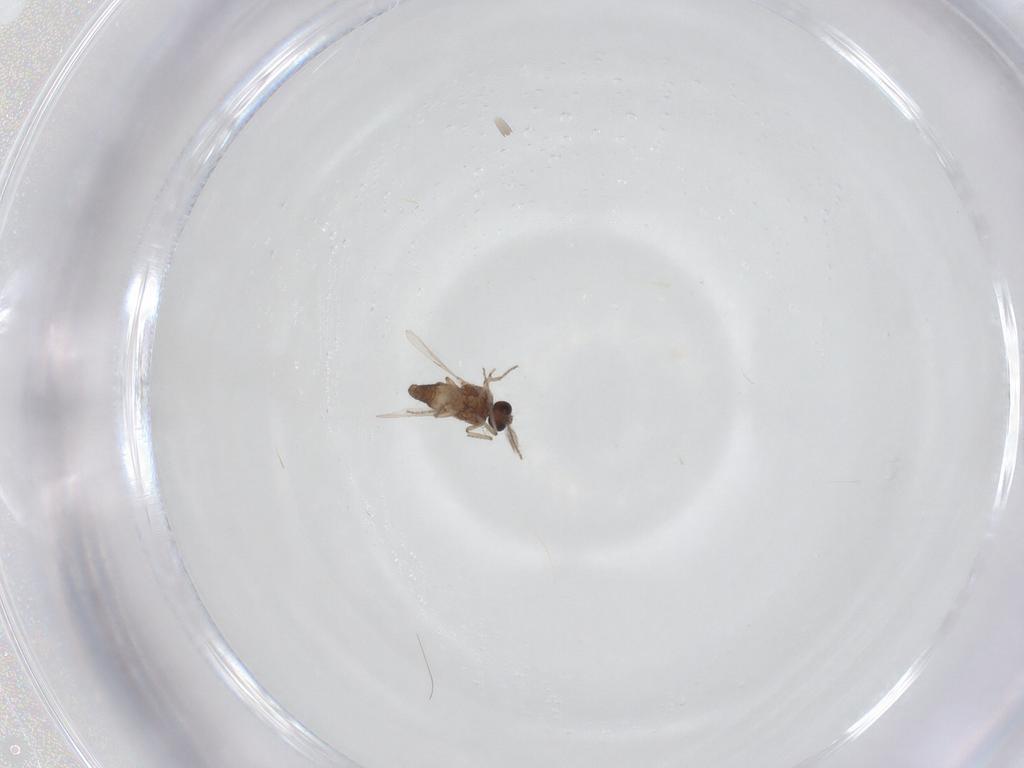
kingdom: Animalia
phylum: Arthropoda
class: Insecta
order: Diptera
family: Ceratopogonidae
